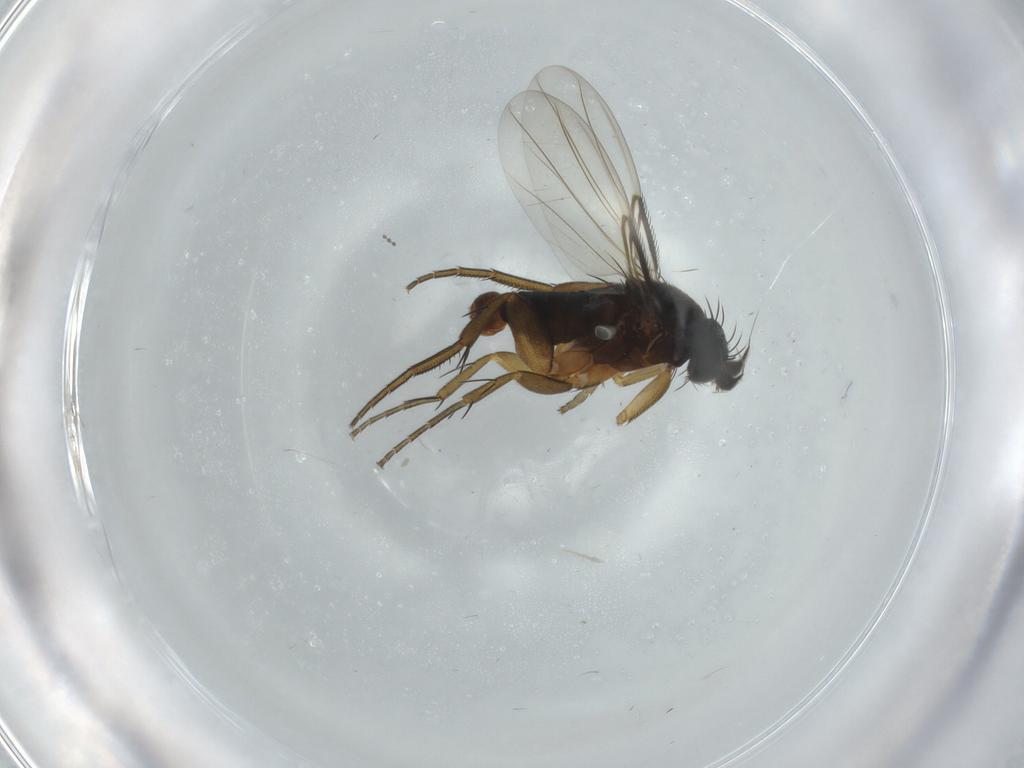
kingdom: Animalia
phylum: Arthropoda
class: Insecta
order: Diptera
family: Phoridae
